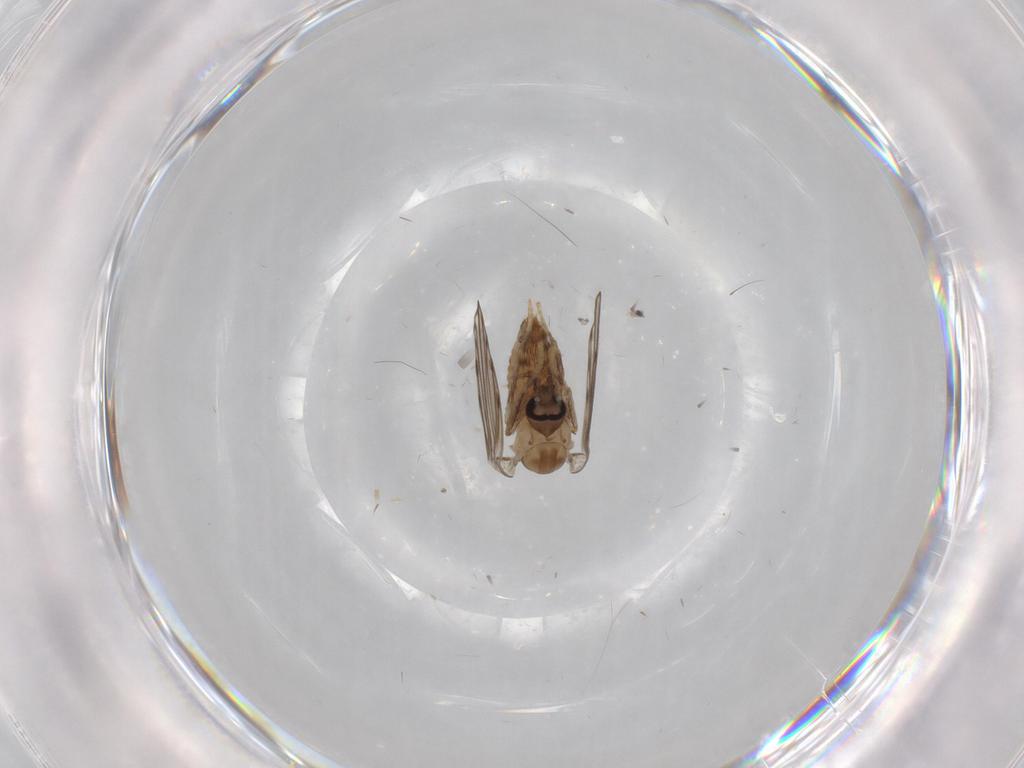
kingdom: Animalia
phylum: Arthropoda
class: Insecta
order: Diptera
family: Psychodidae
